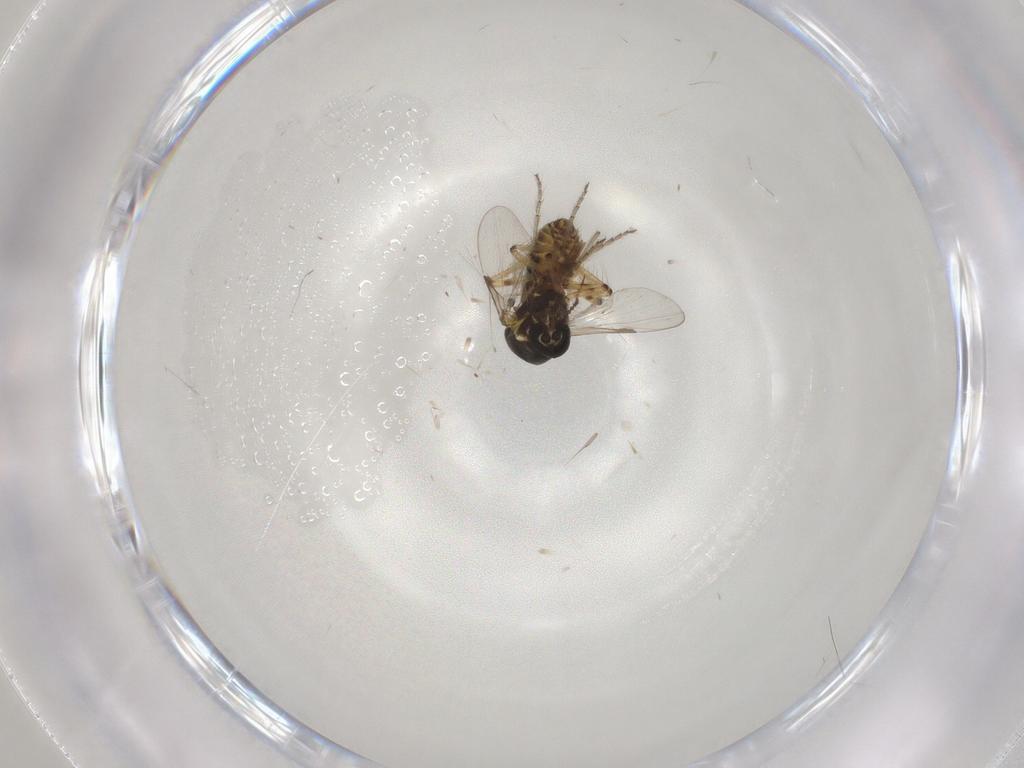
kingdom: Animalia
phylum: Arthropoda
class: Insecta
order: Diptera
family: Ceratopogonidae
